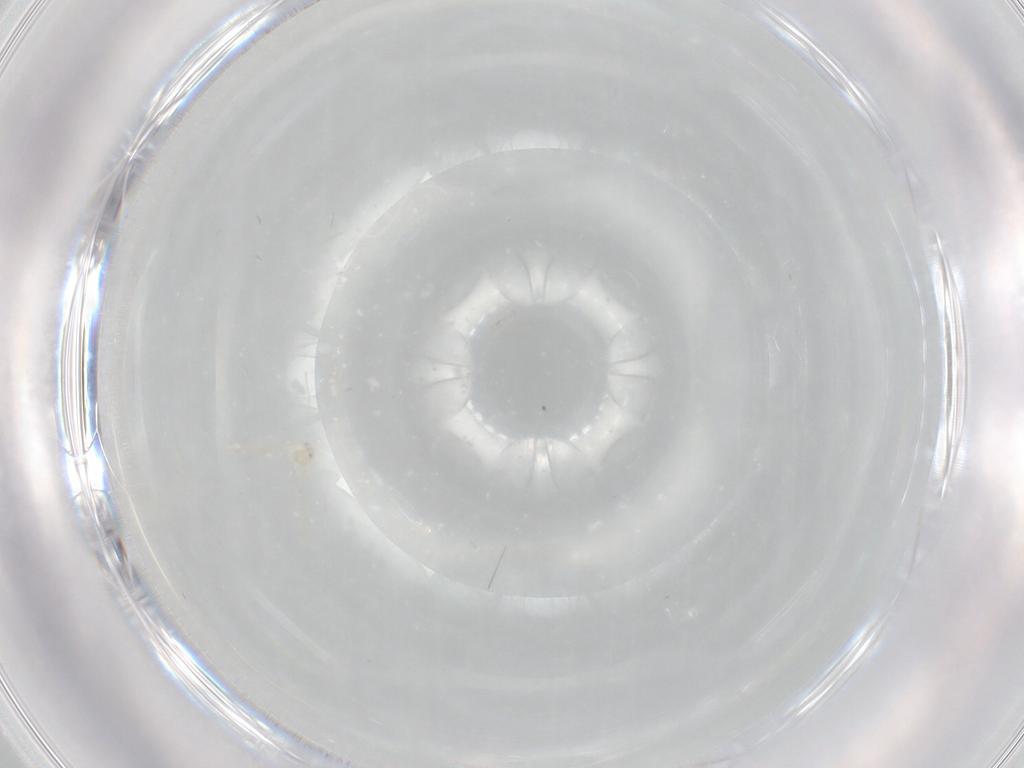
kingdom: Animalia
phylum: Arthropoda
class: Insecta
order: Diptera
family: Cecidomyiidae
